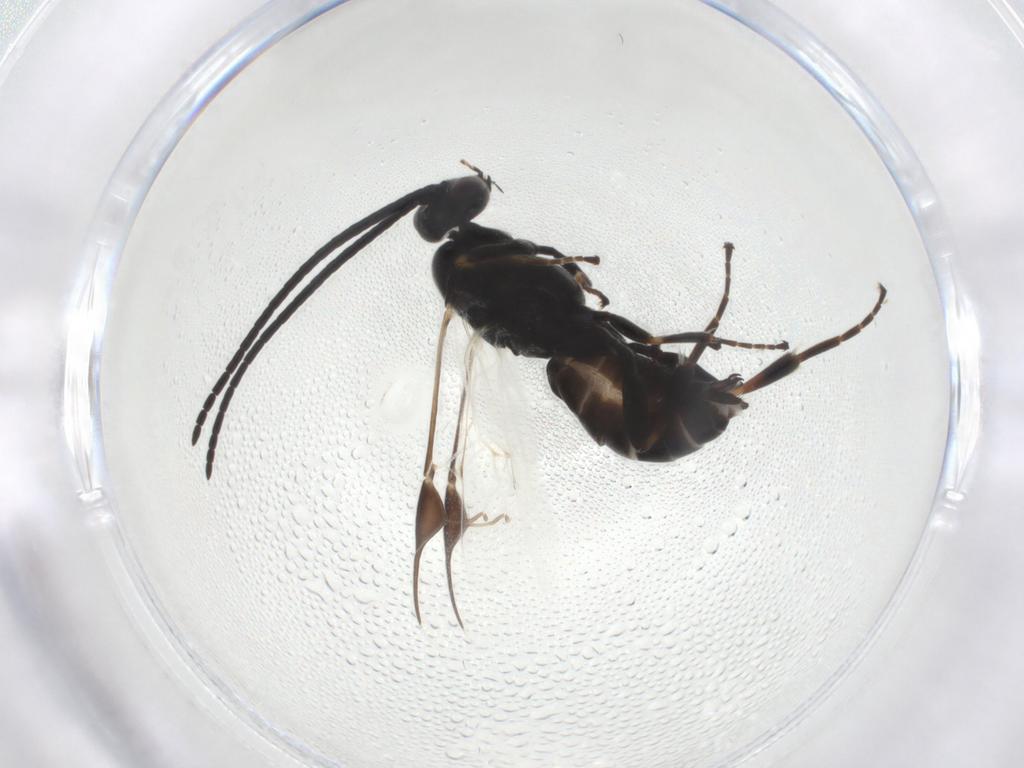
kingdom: Animalia
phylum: Arthropoda
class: Insecta
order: Hymenoptera
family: Braconidae
